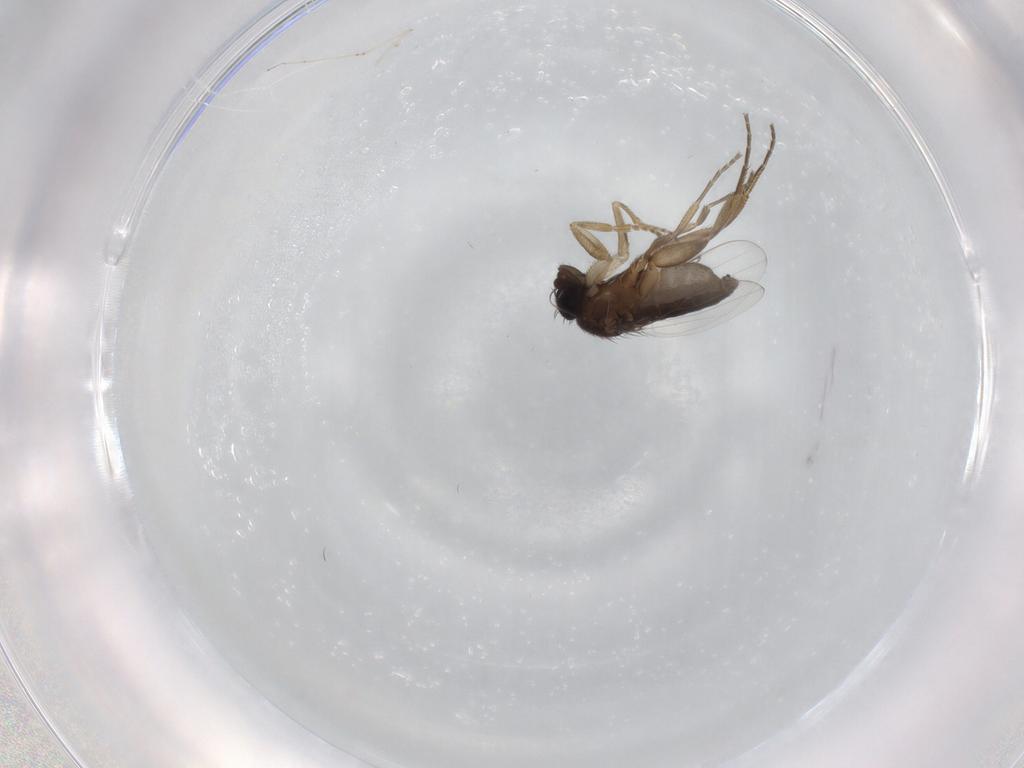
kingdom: Animalia
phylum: Arthropoda
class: Insecta
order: Diptera
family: Phoridae
